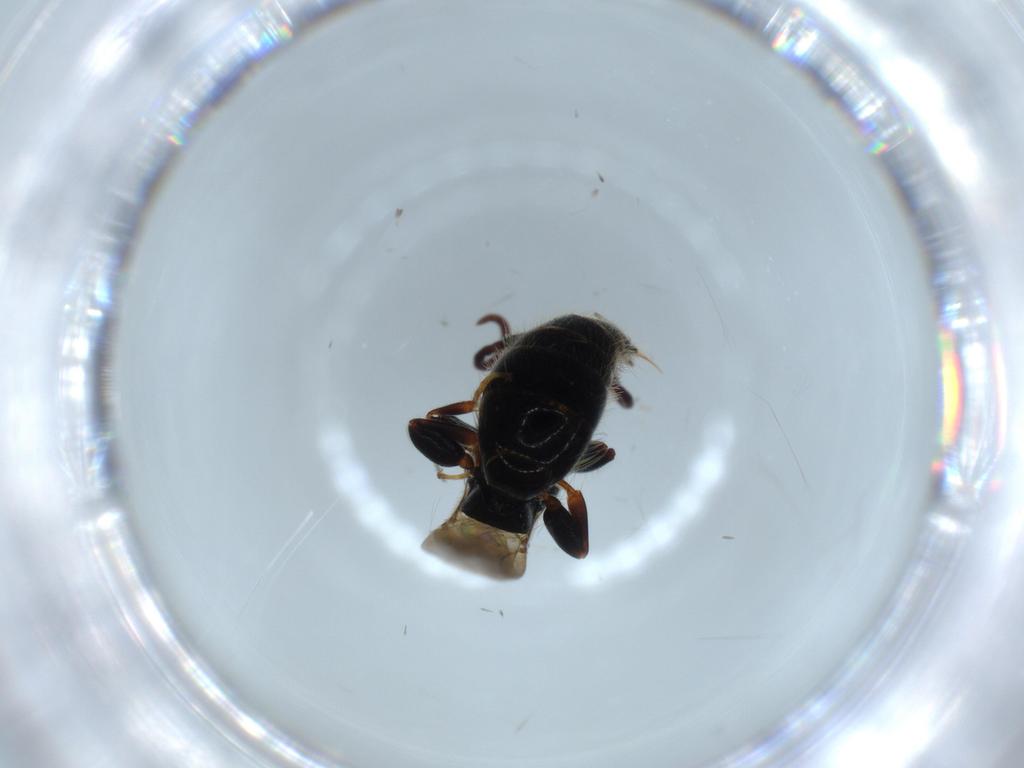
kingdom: Animalia
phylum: Arthropoda
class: Insecta
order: Hymenoptera
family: Bethylidae
